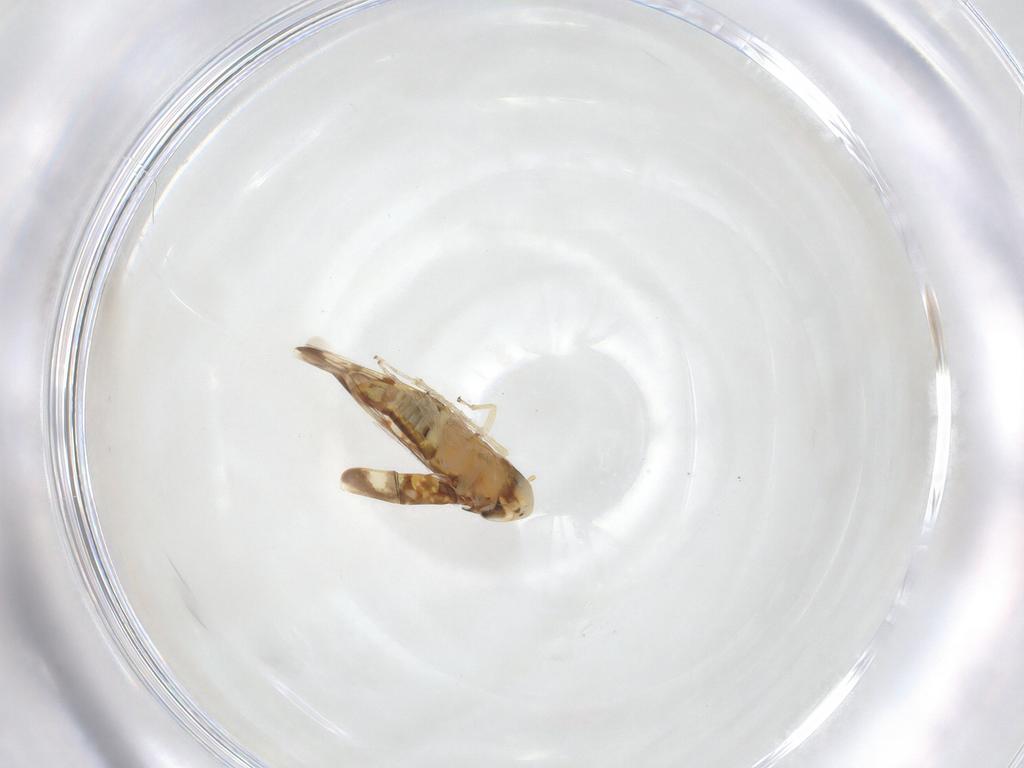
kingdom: Animalia
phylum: Arthropoda
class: Insecta
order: Hemiptera
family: Cicadellidae
